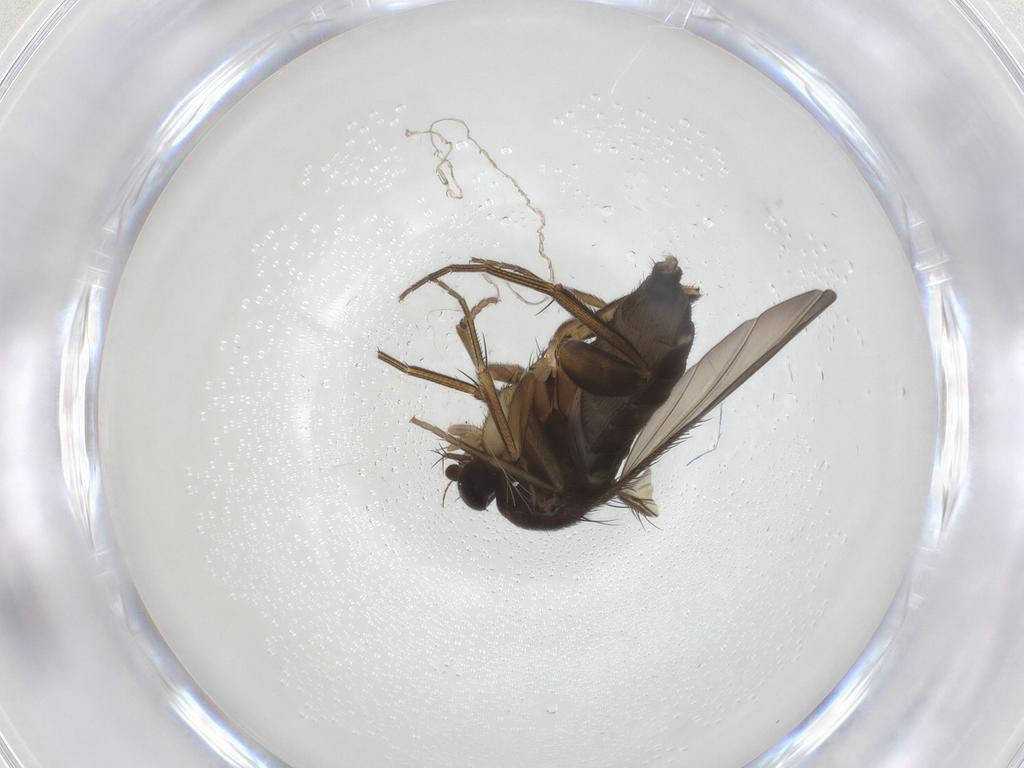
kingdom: Animalia
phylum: Arthropoda
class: Insecta
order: Diptera
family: Phoridae
